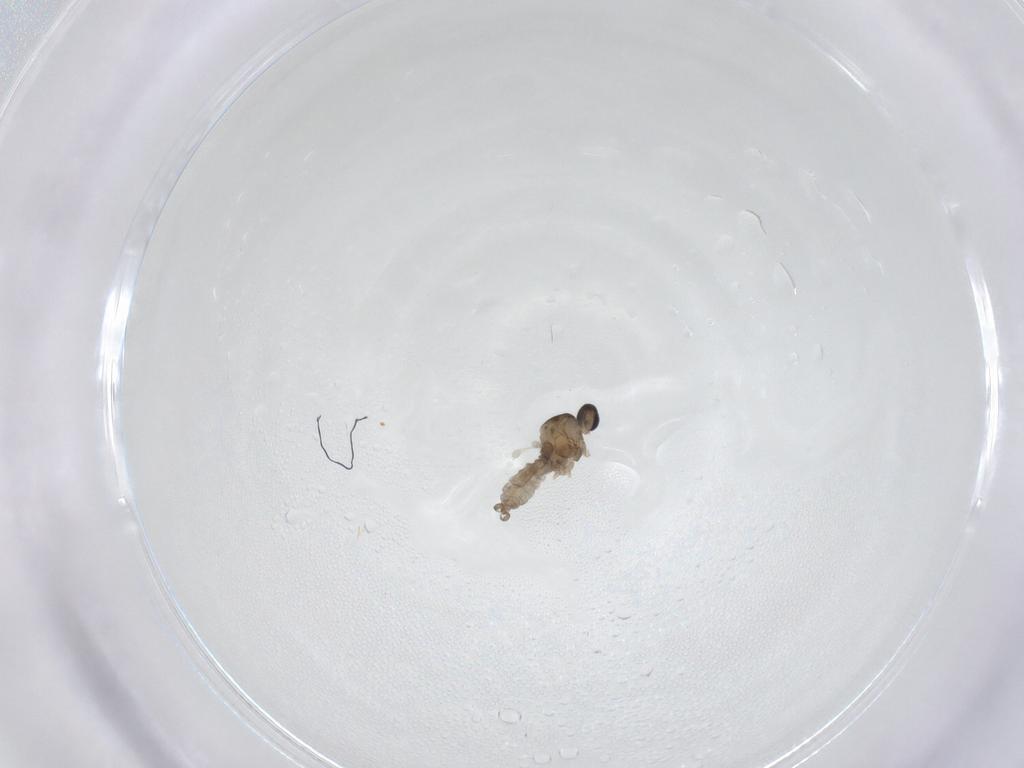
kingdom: Animalia
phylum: Arthropoda
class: Insecta
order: Diptera
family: Cecidomyiidae
